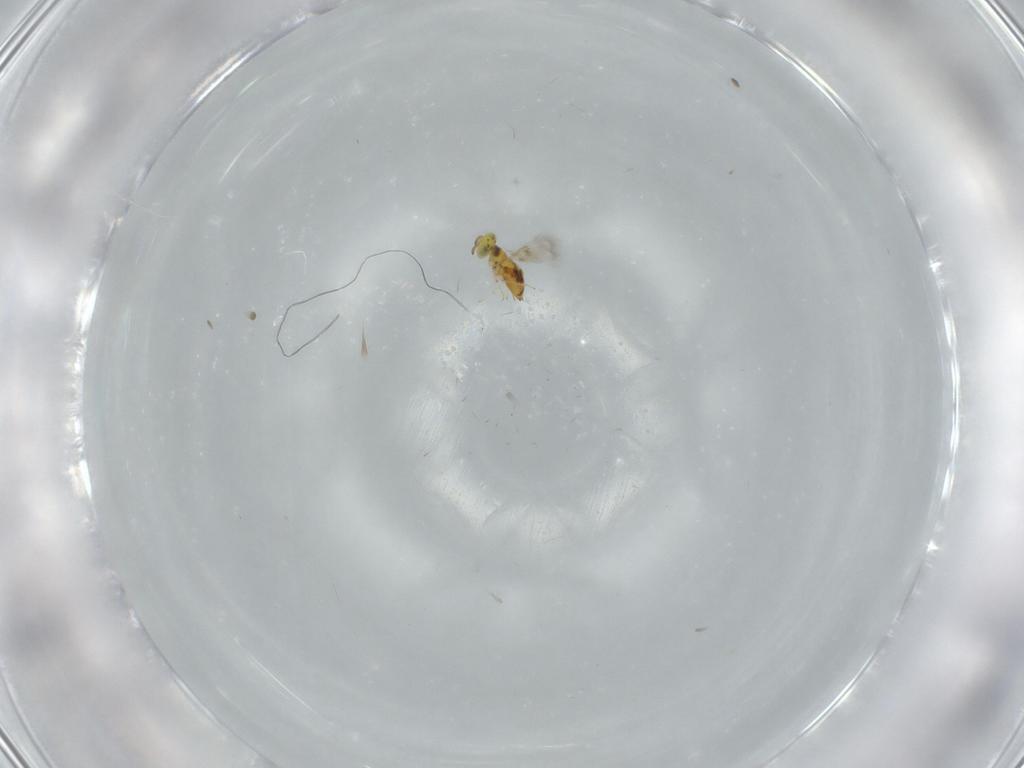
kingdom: Animalia
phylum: Arthropoda
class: Insecta
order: Hymenoptera
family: Signiphoridae
